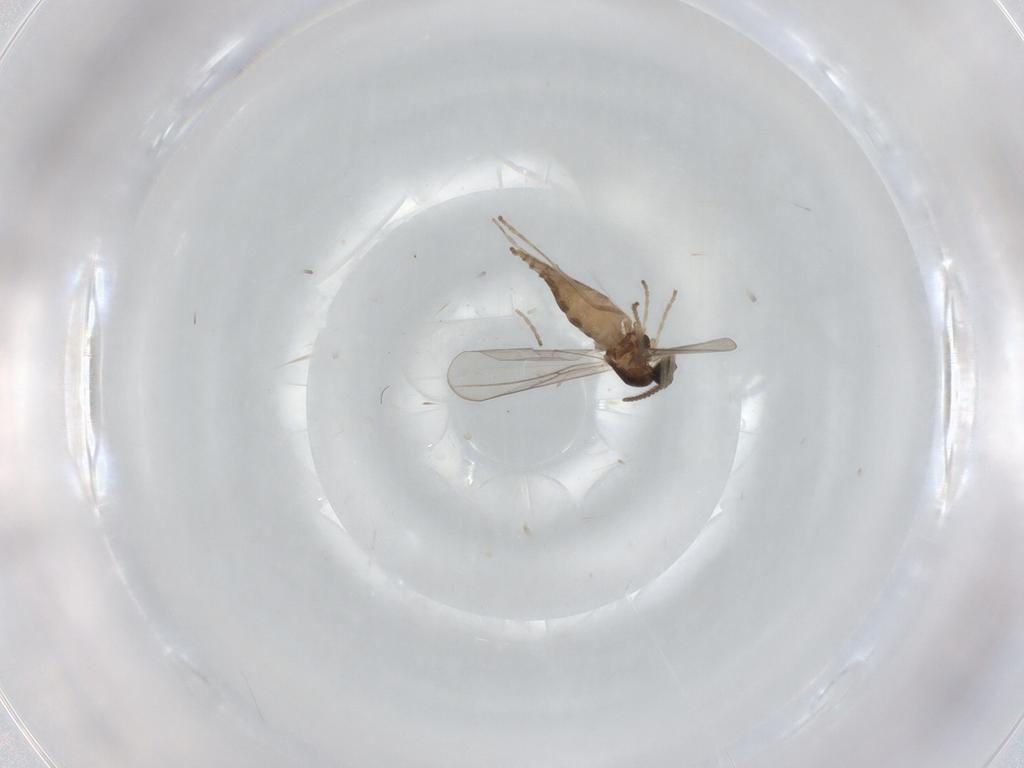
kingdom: Animalia
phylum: Arthropoda
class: Insecta
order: Diptera
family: Cecidomyiidae
